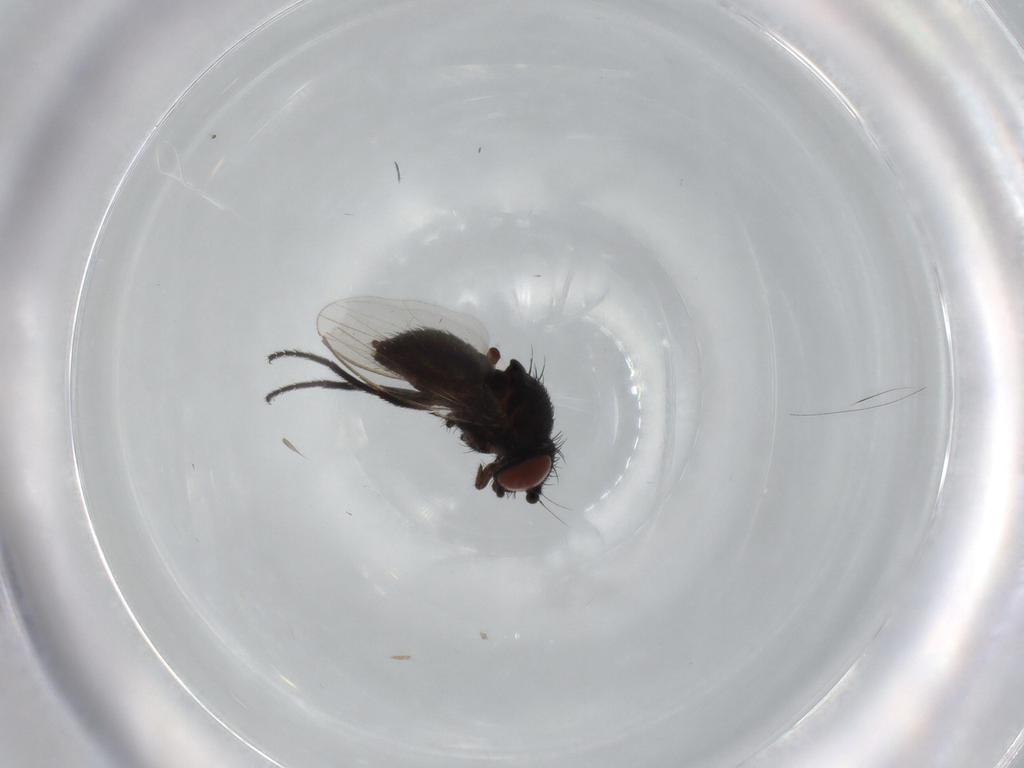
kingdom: Animalia
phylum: Arthropoda
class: Insecta
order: Diptera
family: Milichiidae
